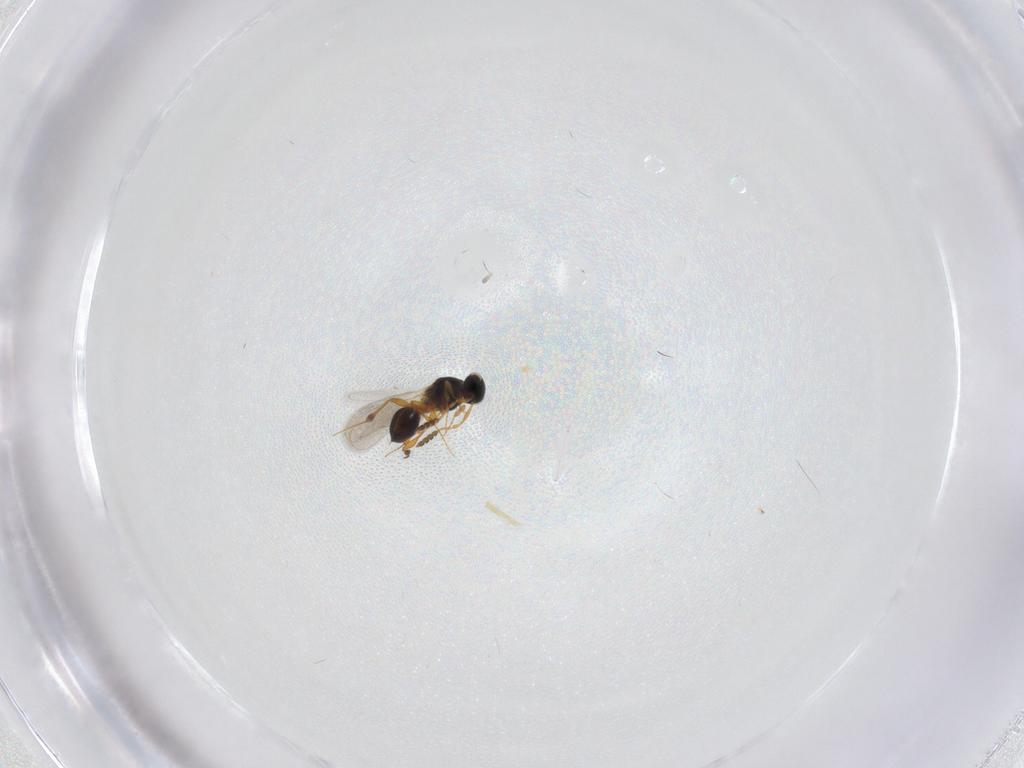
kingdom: Animalia
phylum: Arthropoda
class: Insecta
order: Hymenoptera
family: Platygastridae
